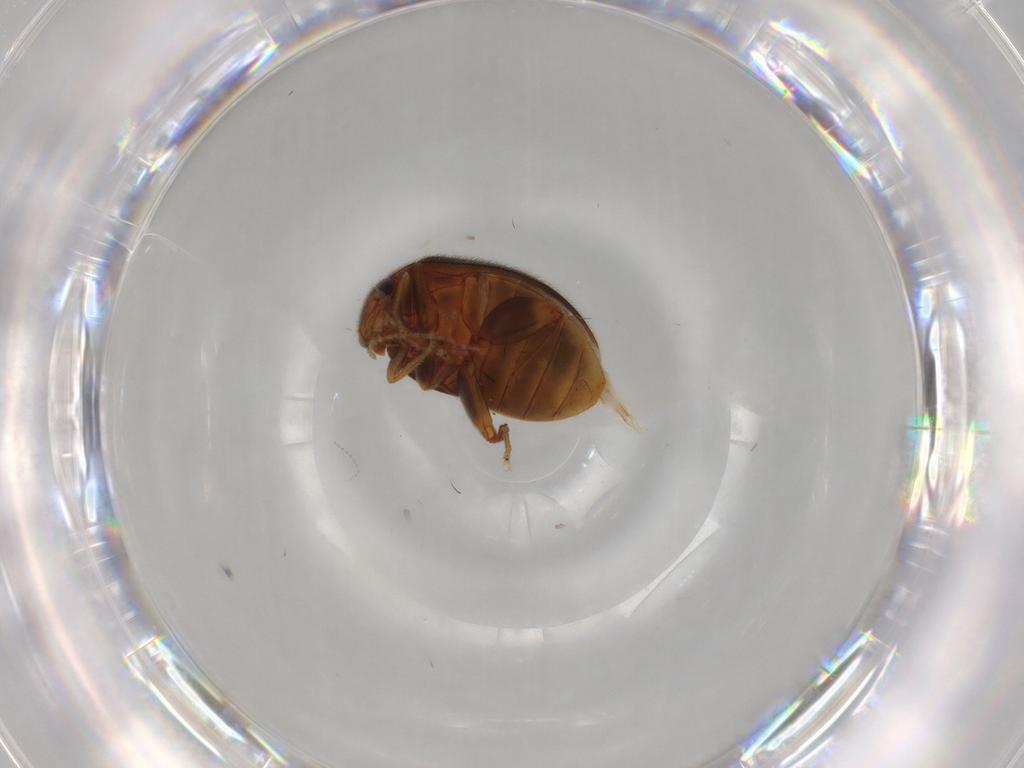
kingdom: Animalia
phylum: Arthropoda
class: Insecta
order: Coleoptera
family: Scirtidae
